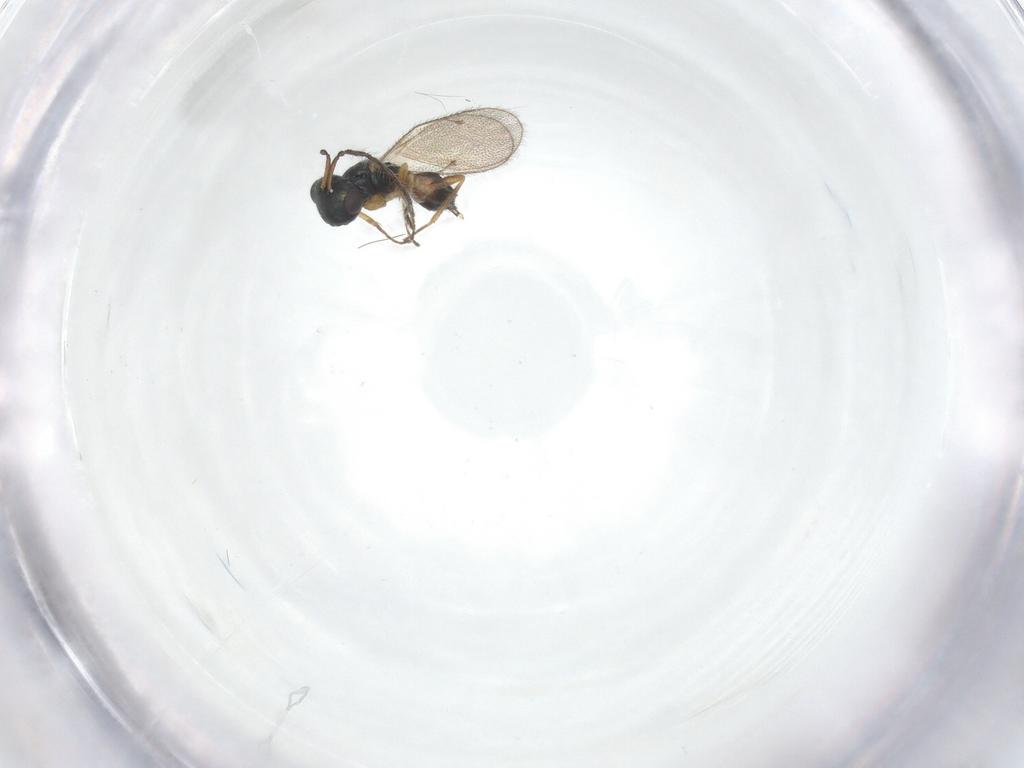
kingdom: Animalia
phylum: Arthropoda
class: Insecta
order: Hymenoptera
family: Pteromalidae
